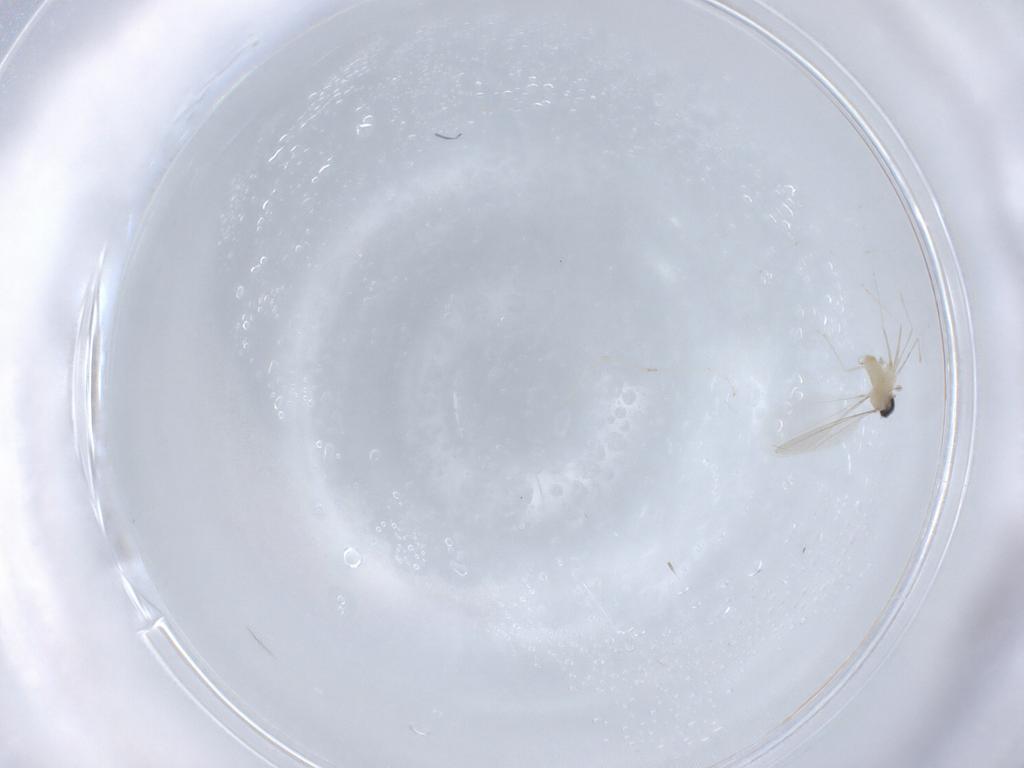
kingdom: Animalia
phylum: Arthropoda
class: Insecta
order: Diptera
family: Cecidomyiidae
